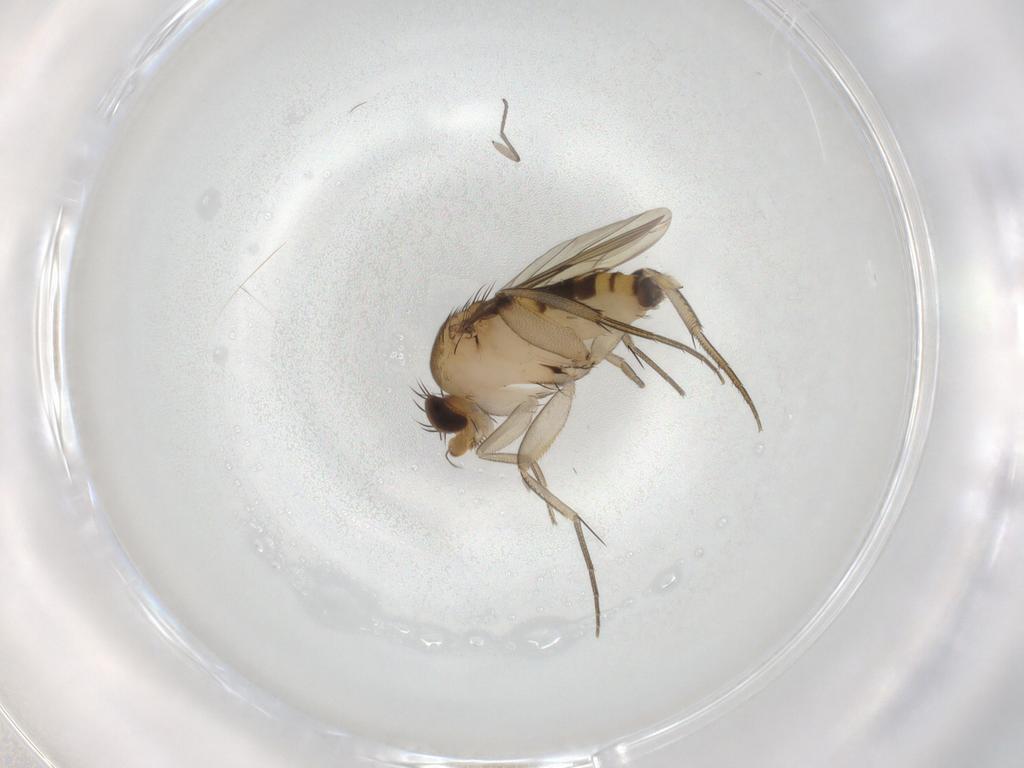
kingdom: Animalia
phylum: Arthropoda
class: Insecta
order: Diptera
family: Phoridae
